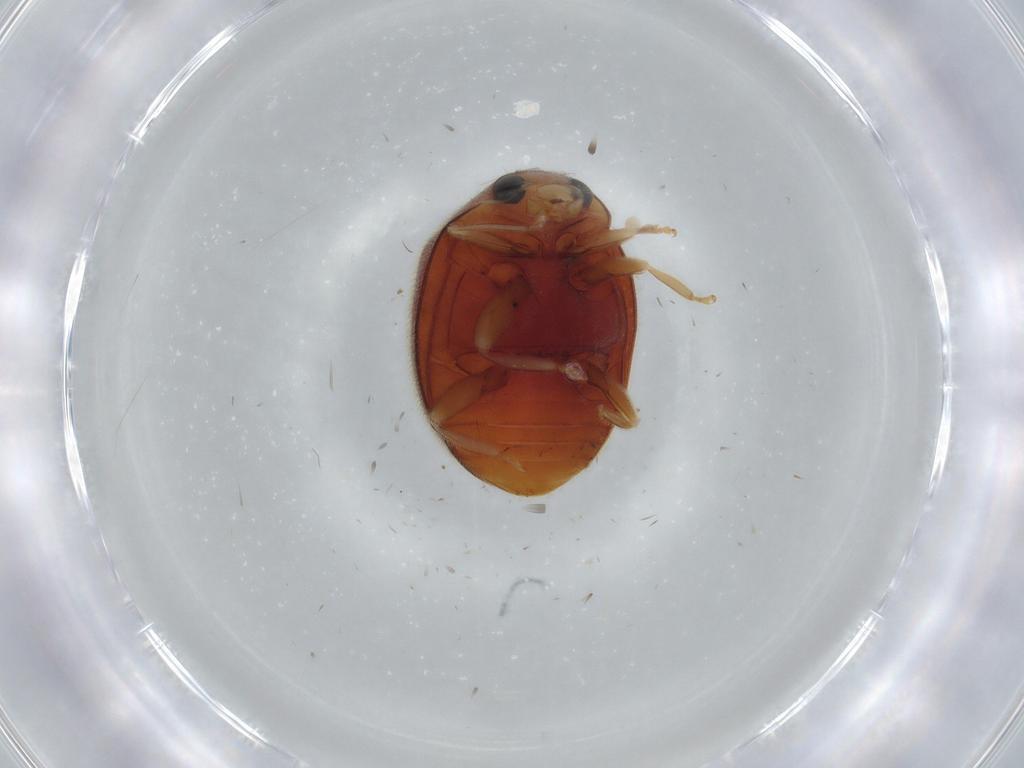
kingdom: Animalia
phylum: Arthropoda
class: Insecta
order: Coleoptera
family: Coccinellidae
